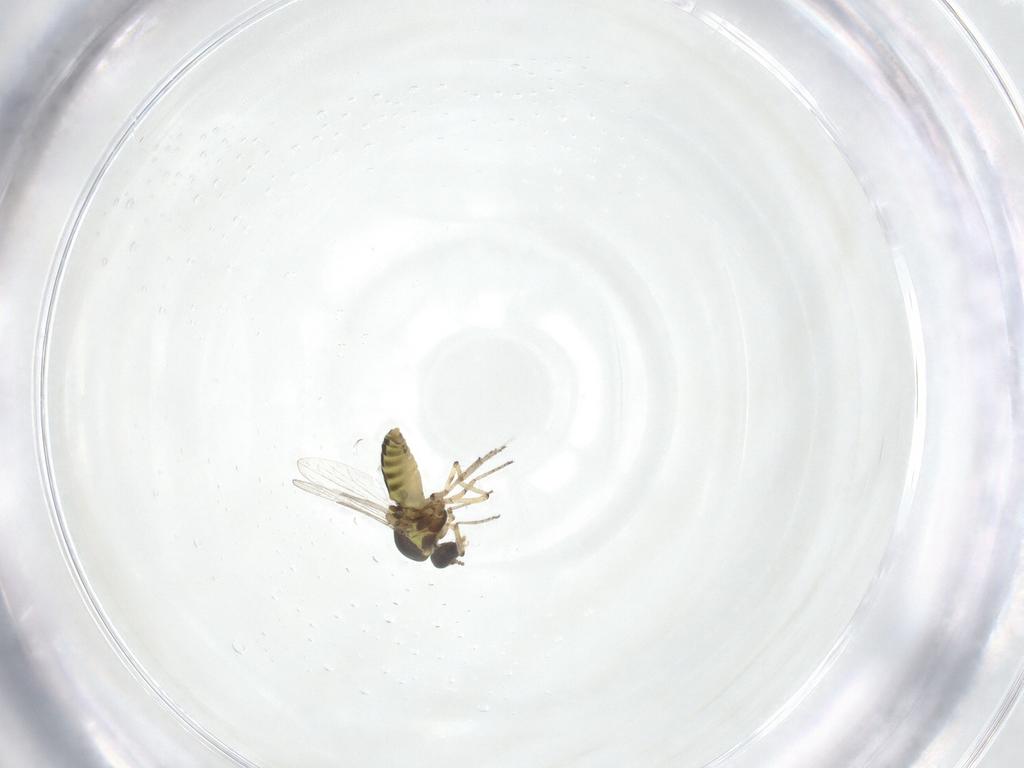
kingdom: Animalia
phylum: Arthropoda
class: Insecta
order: Diptera
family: Ceratopogonidae
